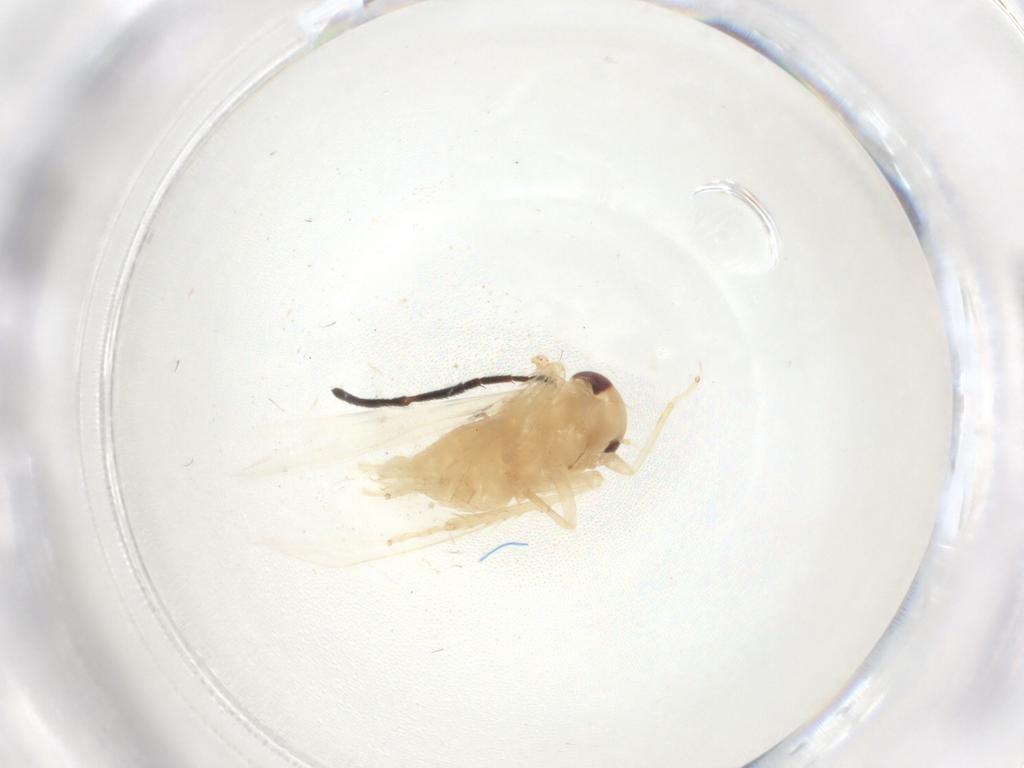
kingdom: Animalia
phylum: Arthropoda
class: Insecta
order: Hemiptera
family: Cicadellidae
